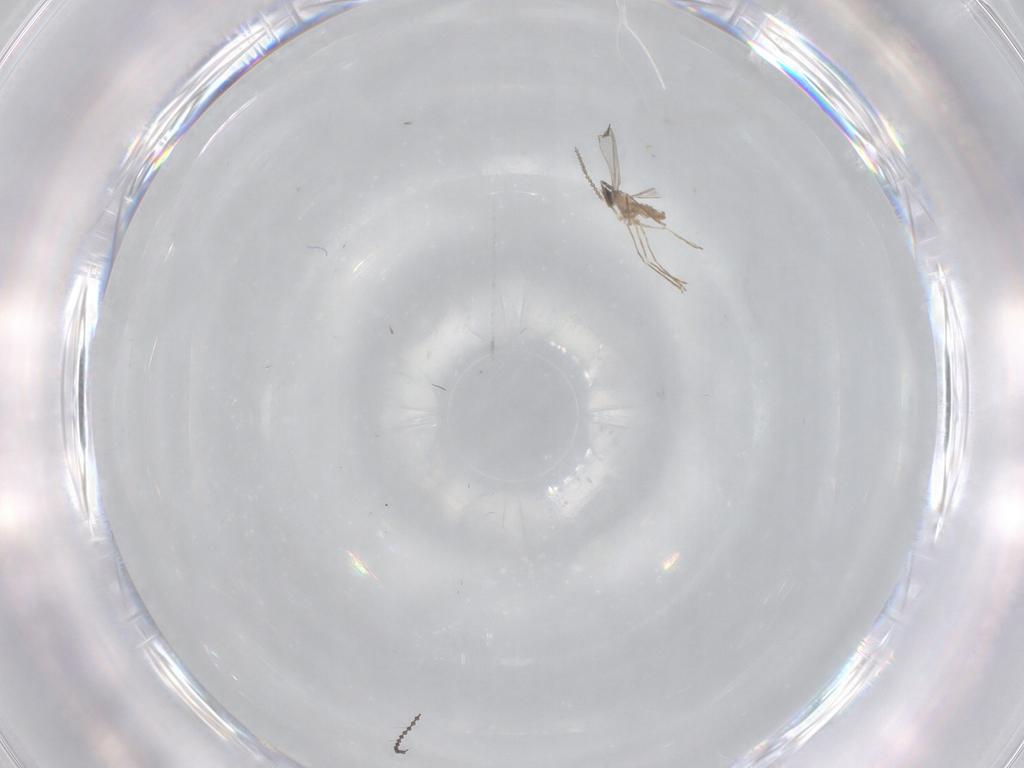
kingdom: Animalia
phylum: Arthropoda
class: Insecta
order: Diptera
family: Cecidomyiidae
